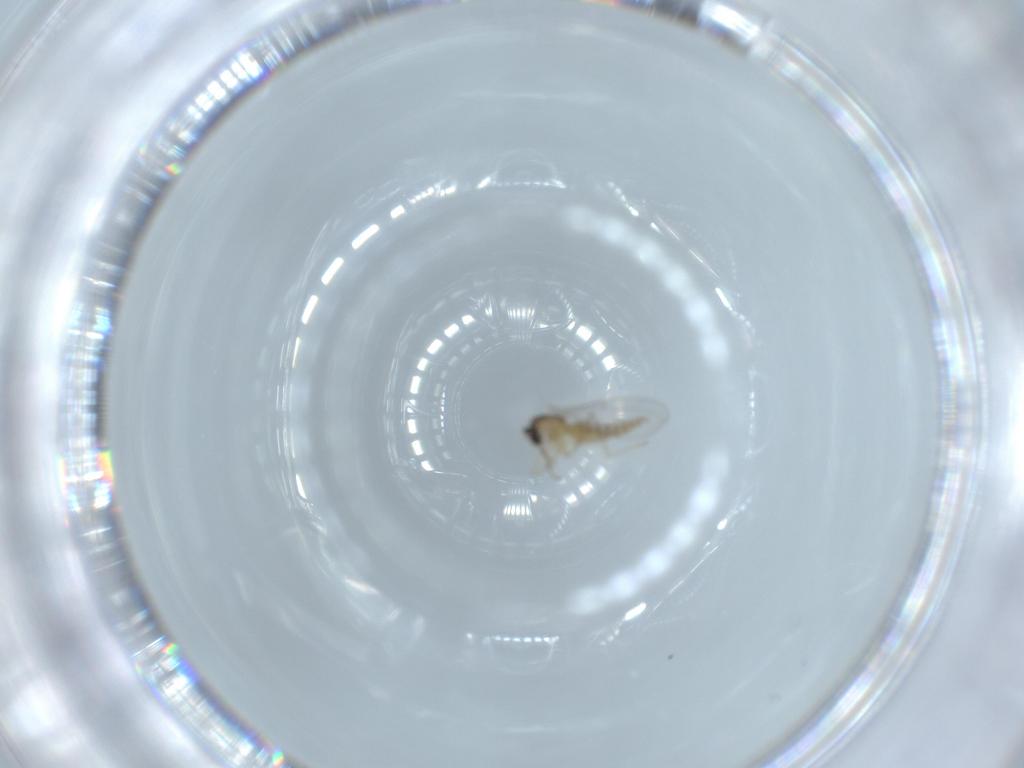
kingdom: Animalia
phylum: Arthropoda
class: Insecta
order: Diptera
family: Cecidomyiidae
